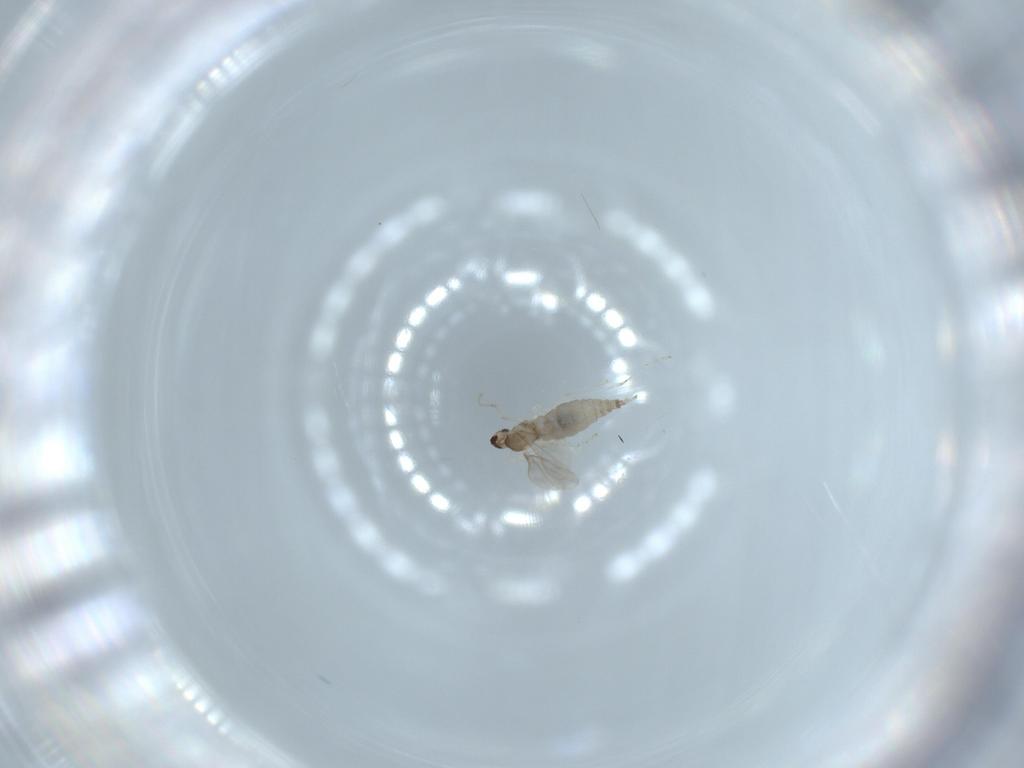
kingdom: Animalia
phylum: Arthropoda
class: Insecta
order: Diptera
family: Cecidomyiidae
